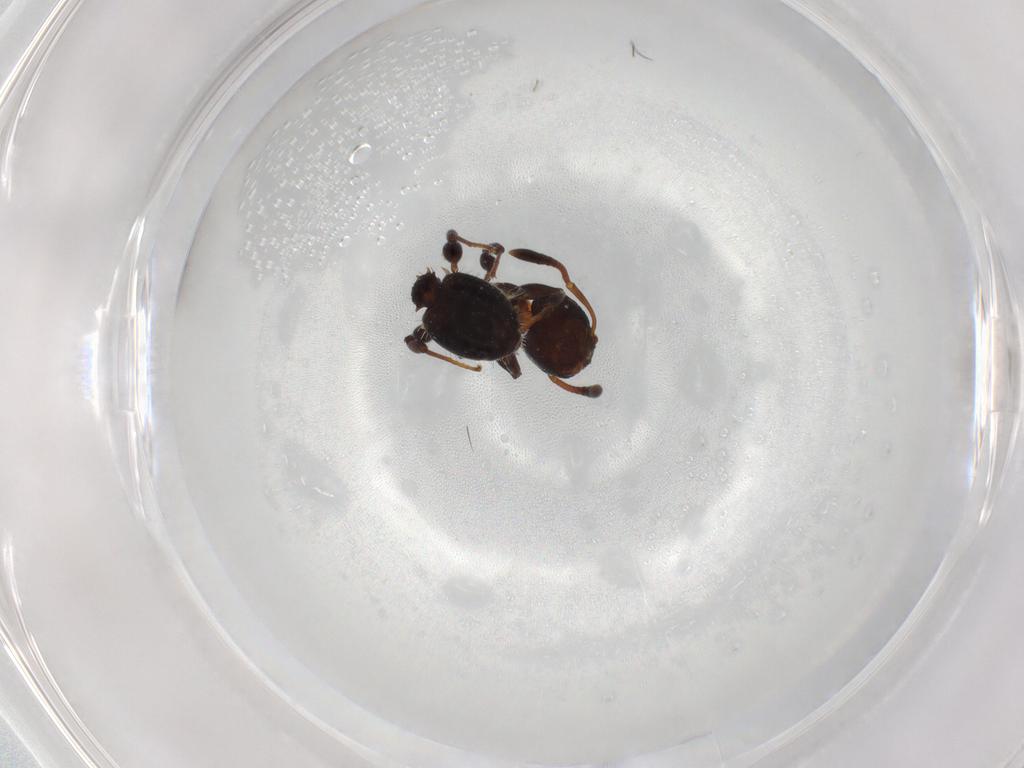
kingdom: Animalia
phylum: Arthropoda
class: Insecta
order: Hymenoptera
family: Formicidae
